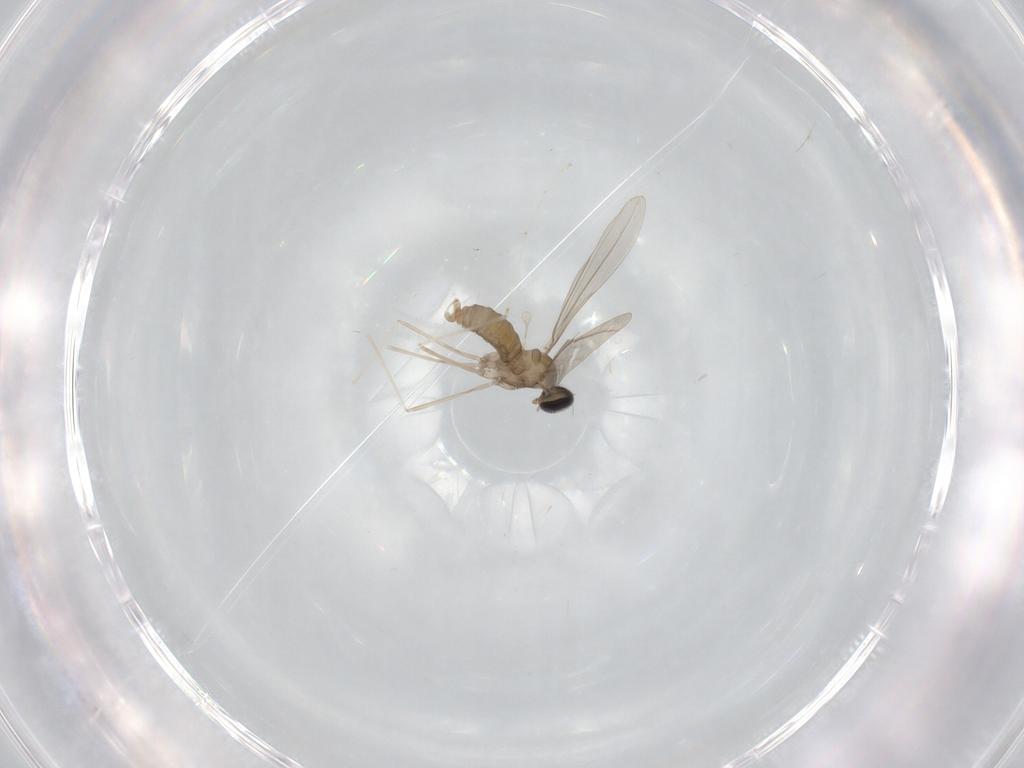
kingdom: Animalia
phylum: Arthropoda
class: Insecta
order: Diptera
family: Cecidomyiidae
